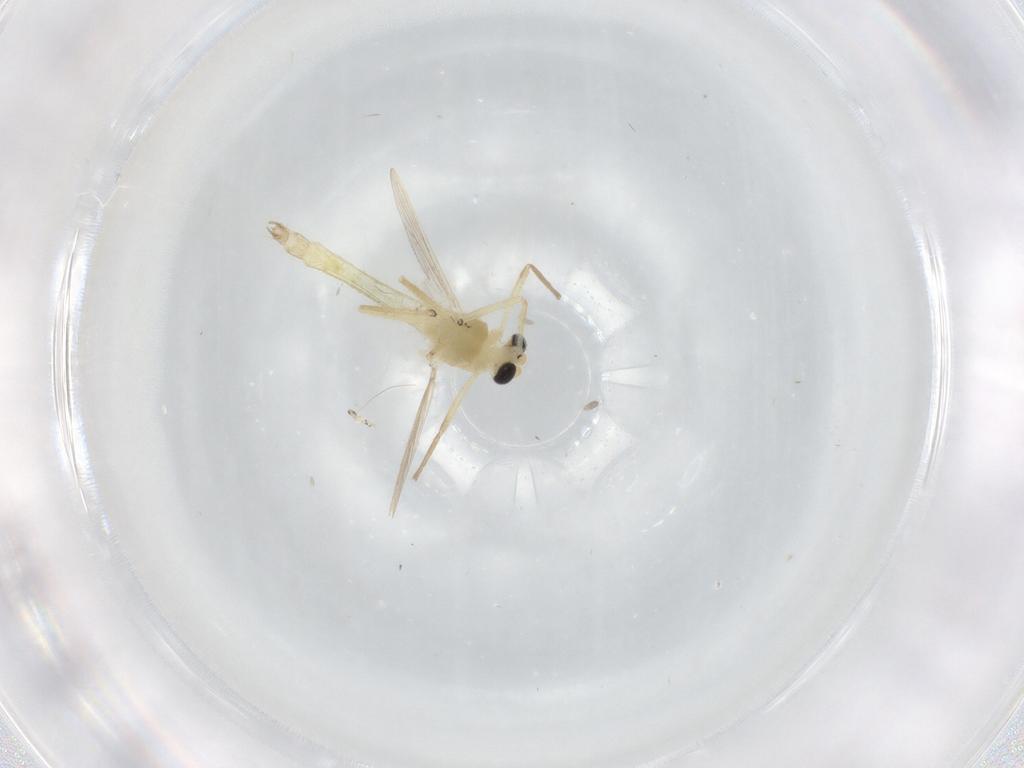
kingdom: Animalia
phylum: Arthropoda
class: Insecta
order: Diptera
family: Chironomidae
